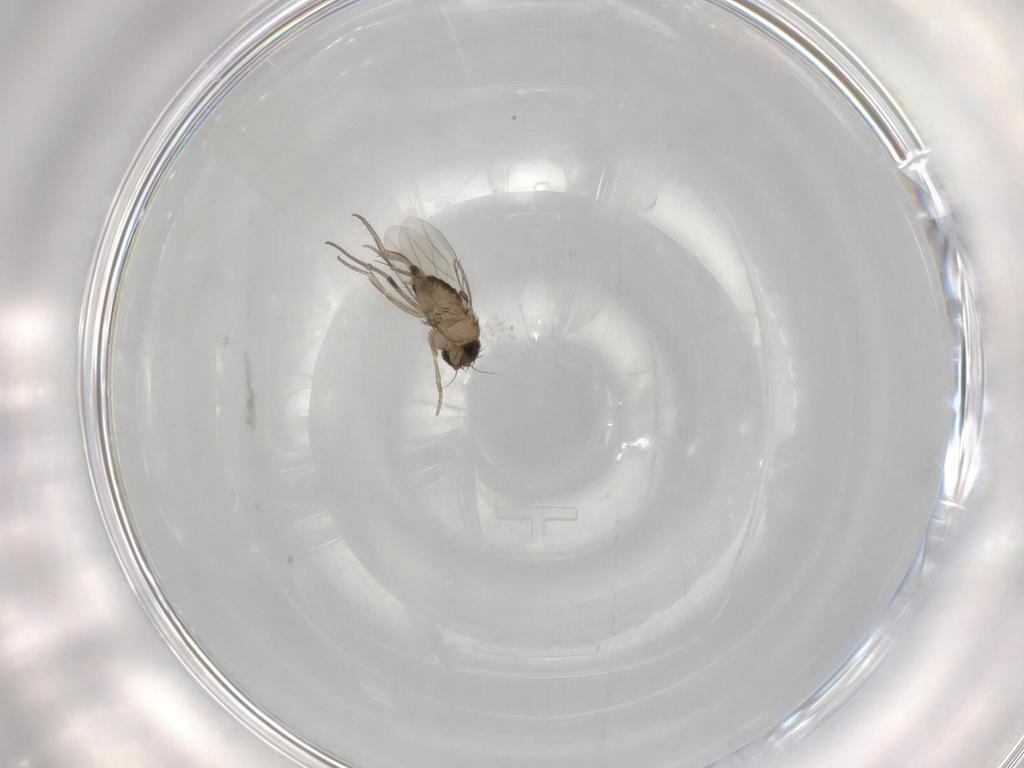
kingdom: Animalia
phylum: Arthropoda
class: Insecta
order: Diptera
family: Phoridae
